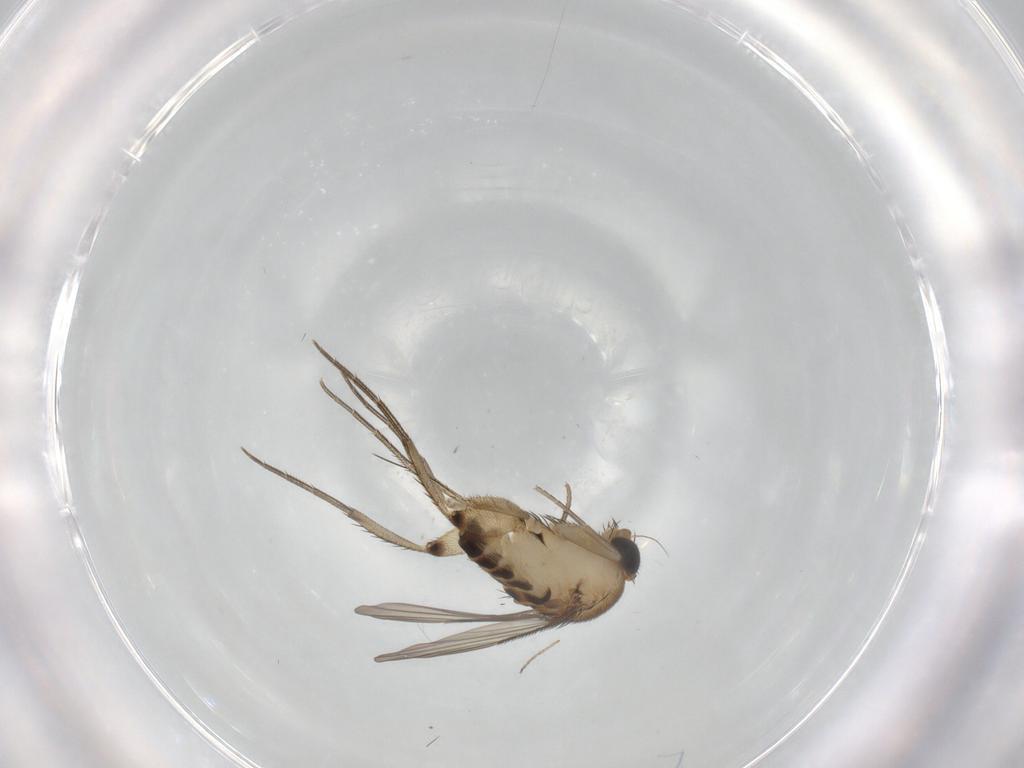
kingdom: Animalia
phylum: Arthropoda
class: Insecta
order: Diptera
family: Phoridae
